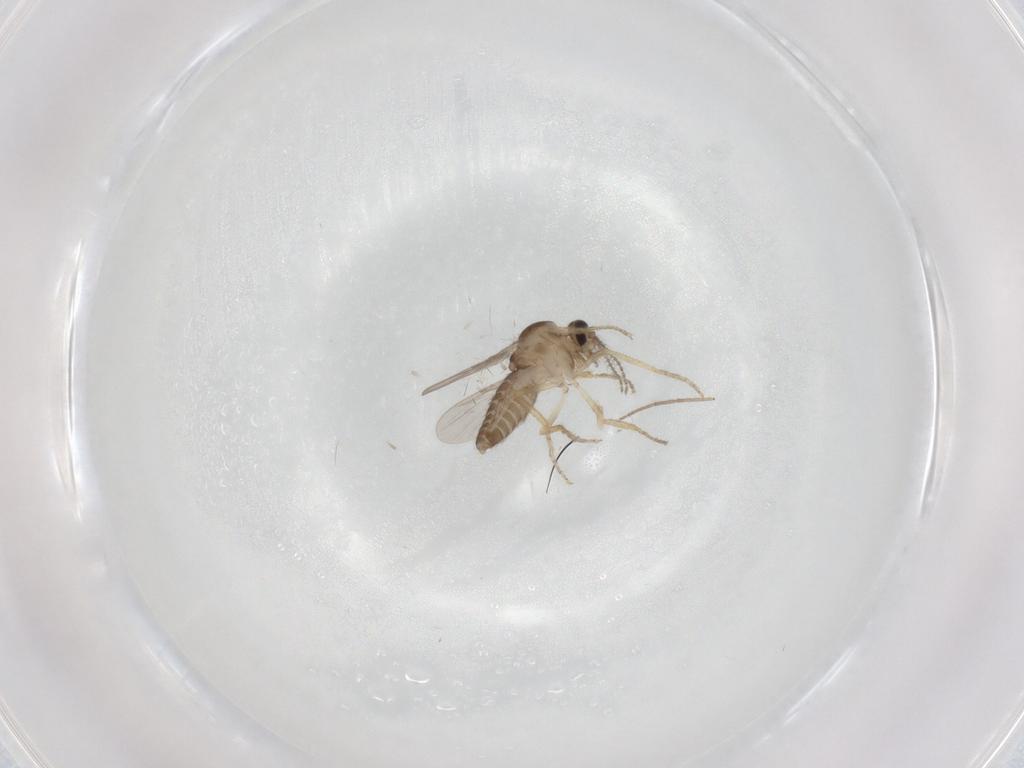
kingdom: Animalia
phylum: Arthropoda
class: Insecta
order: Diptera
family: Ceratopogonidae
